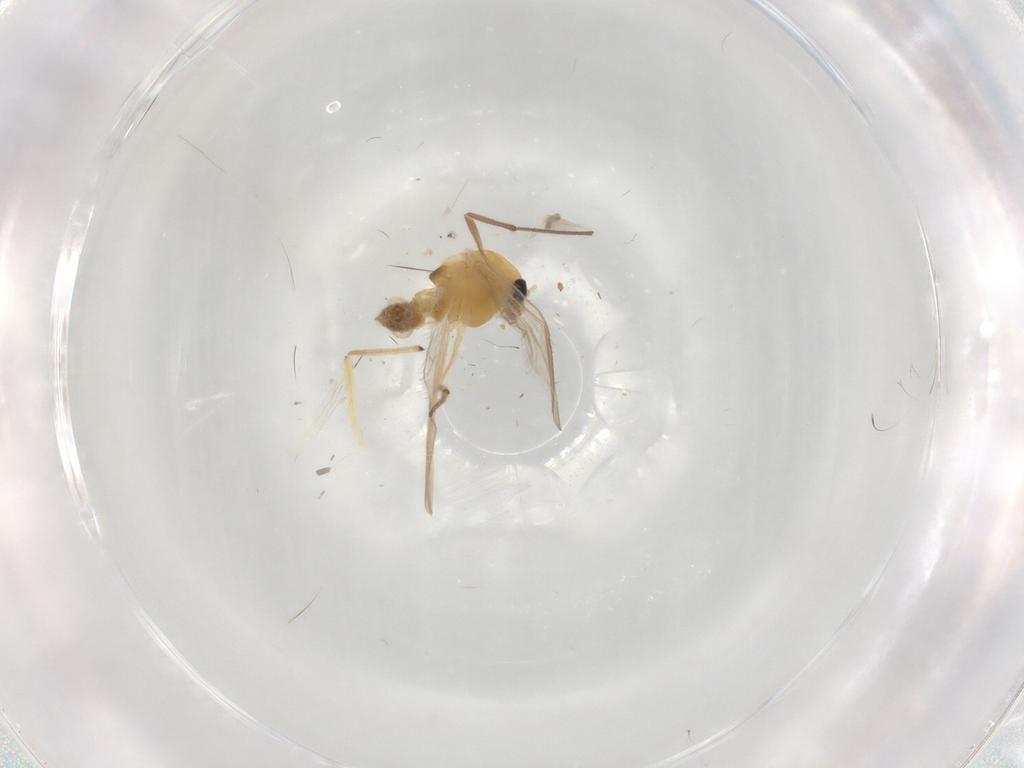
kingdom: Animalia
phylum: Arthropoda
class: Insecta
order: Diptera
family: Chironomidae
